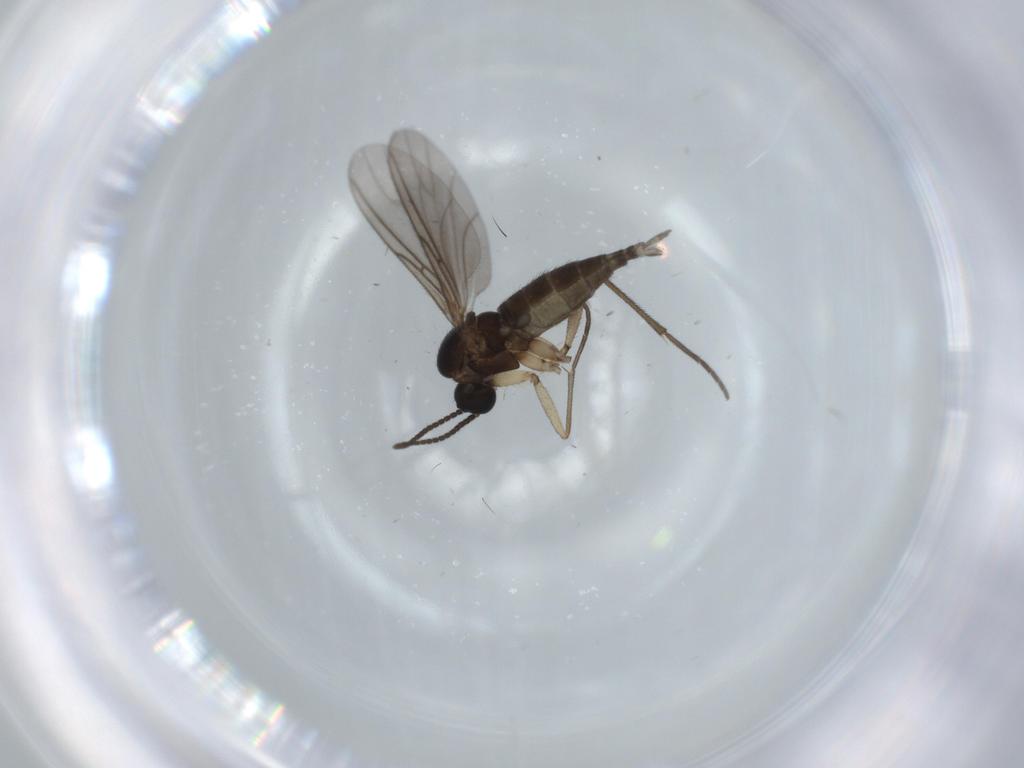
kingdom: Animalia
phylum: Arthropoda
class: Insecta
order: Diptera
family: Sciaridae
